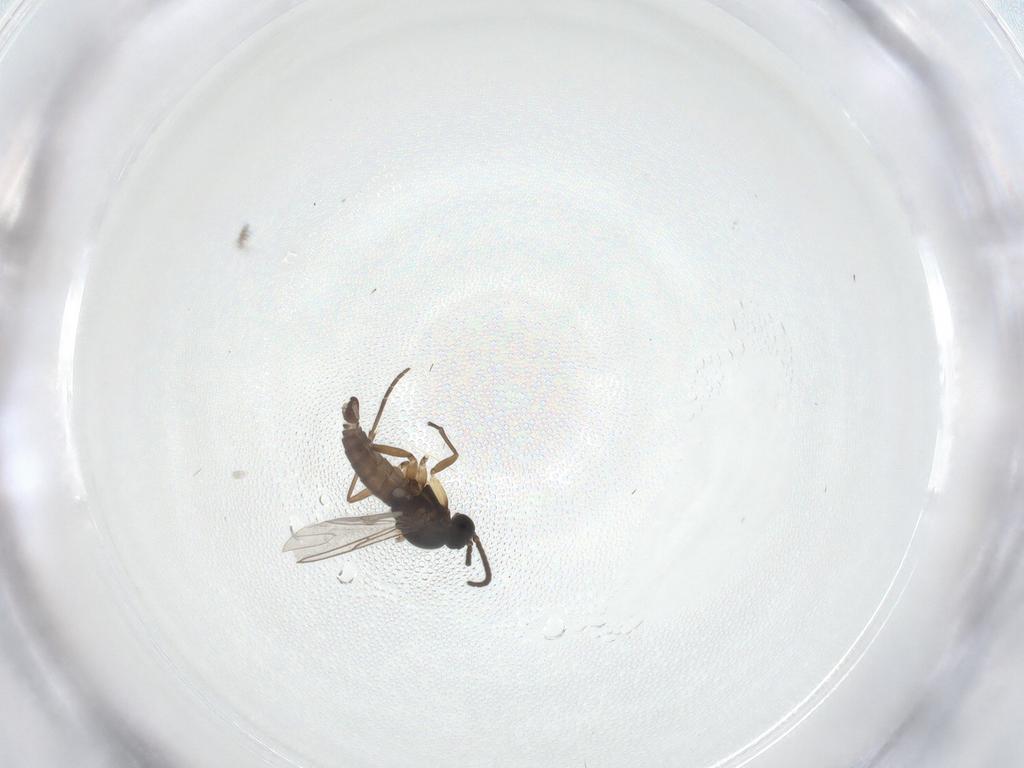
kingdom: Animalia
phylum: Arthropoda
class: Insecta
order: Diptera
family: Sciaridae
